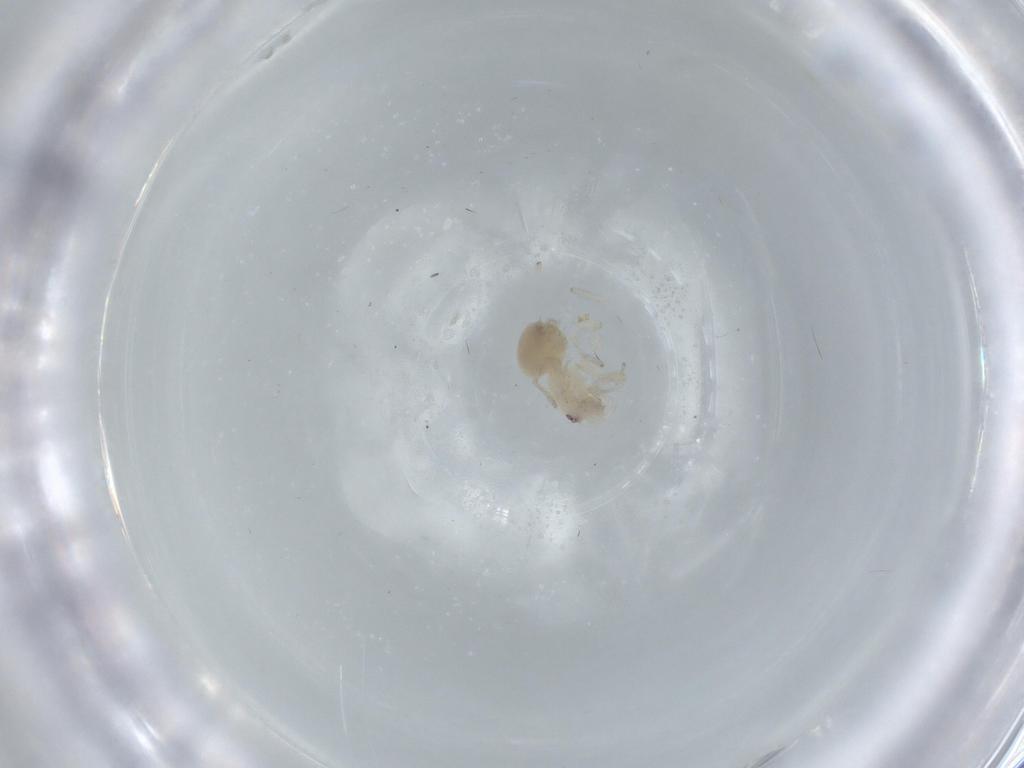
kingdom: Animalia
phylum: Arthropoda
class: Arachnida
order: Araneae
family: Oonopidae
